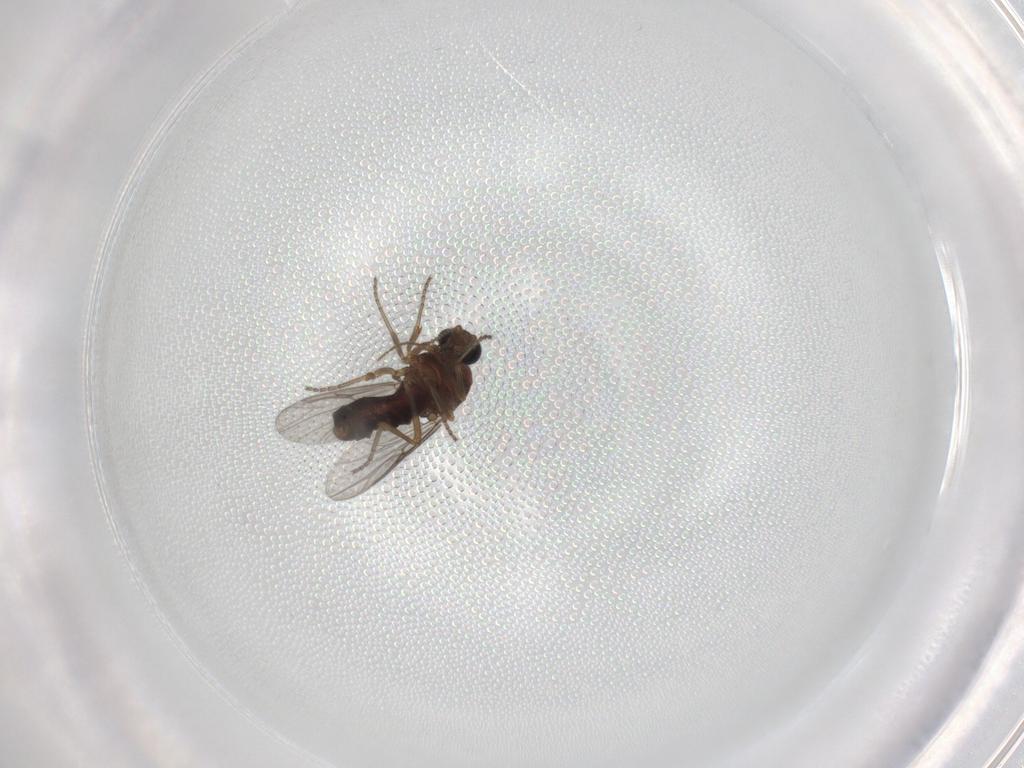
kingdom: Animalia
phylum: Arthropoda
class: Insecta
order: Diptera
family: Ceratopogonidae
